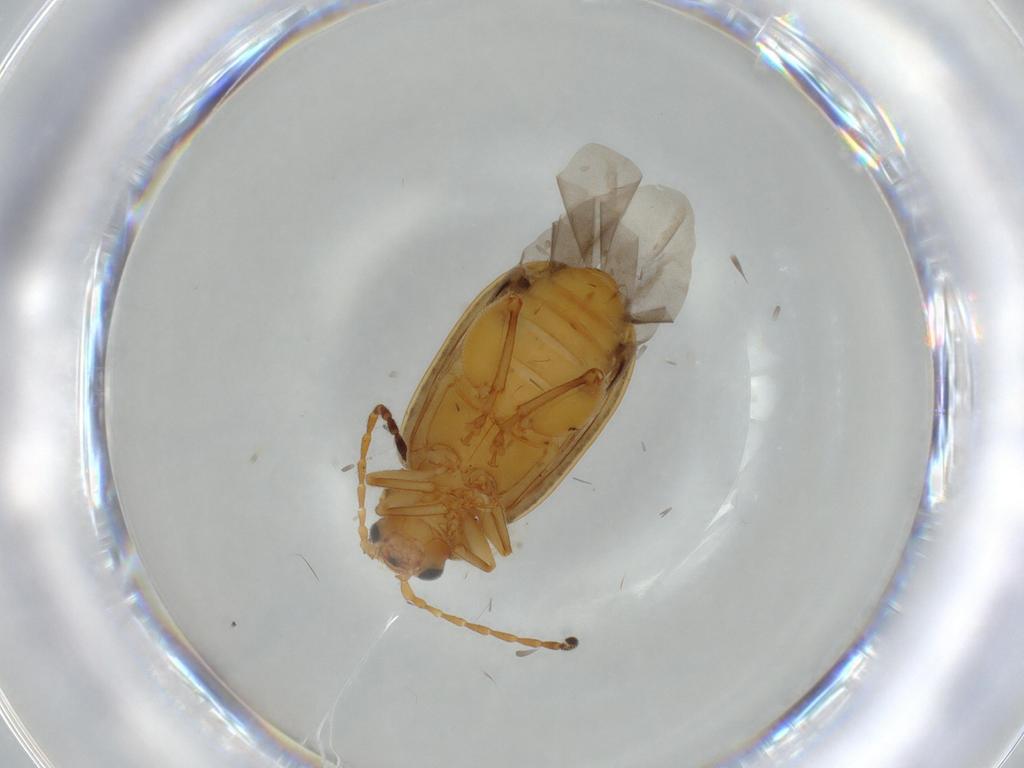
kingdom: Animalia
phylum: Arthropoda
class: Insecta
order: Coleoptera
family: Chrysomelidae
